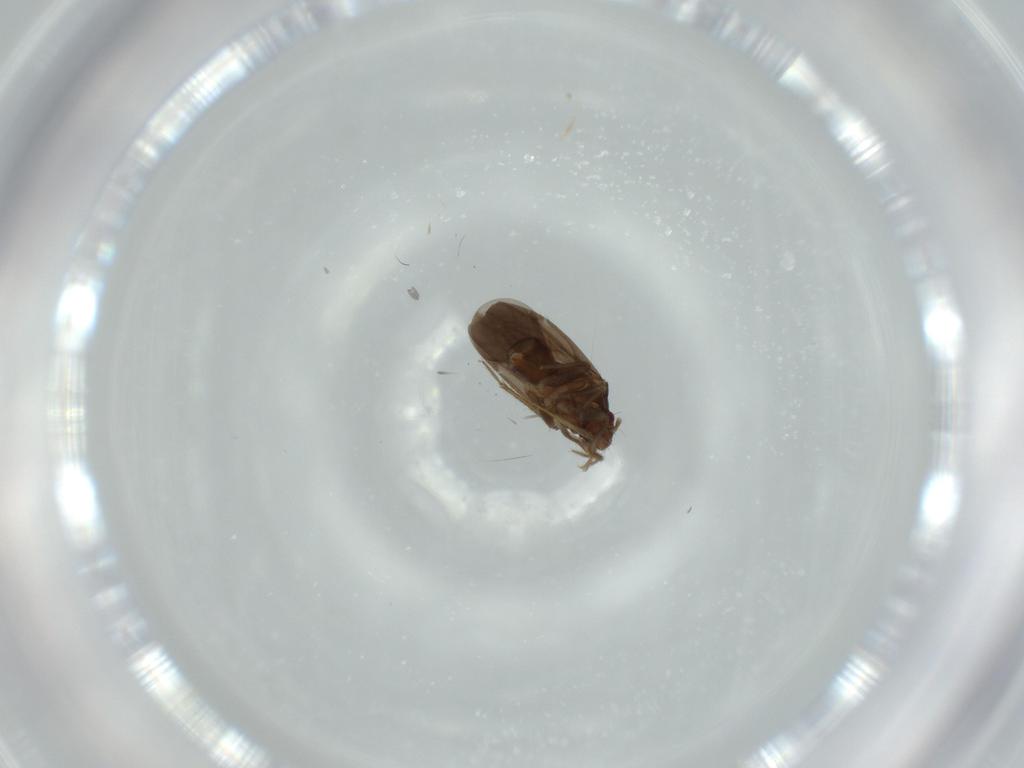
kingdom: Animalia
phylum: Arthropoda
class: Insecta
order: Hemiptera
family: Ceratocombidae
